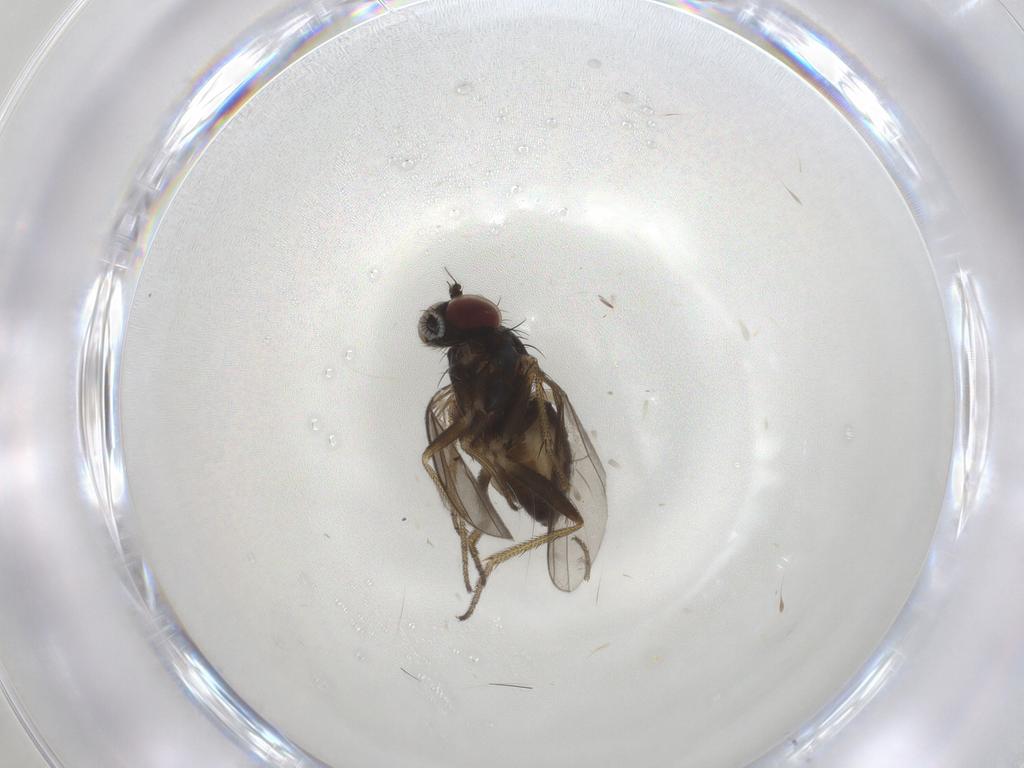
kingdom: Animalia
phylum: Arthropoda
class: Insecta
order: Diptera
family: Dolichopodidae
